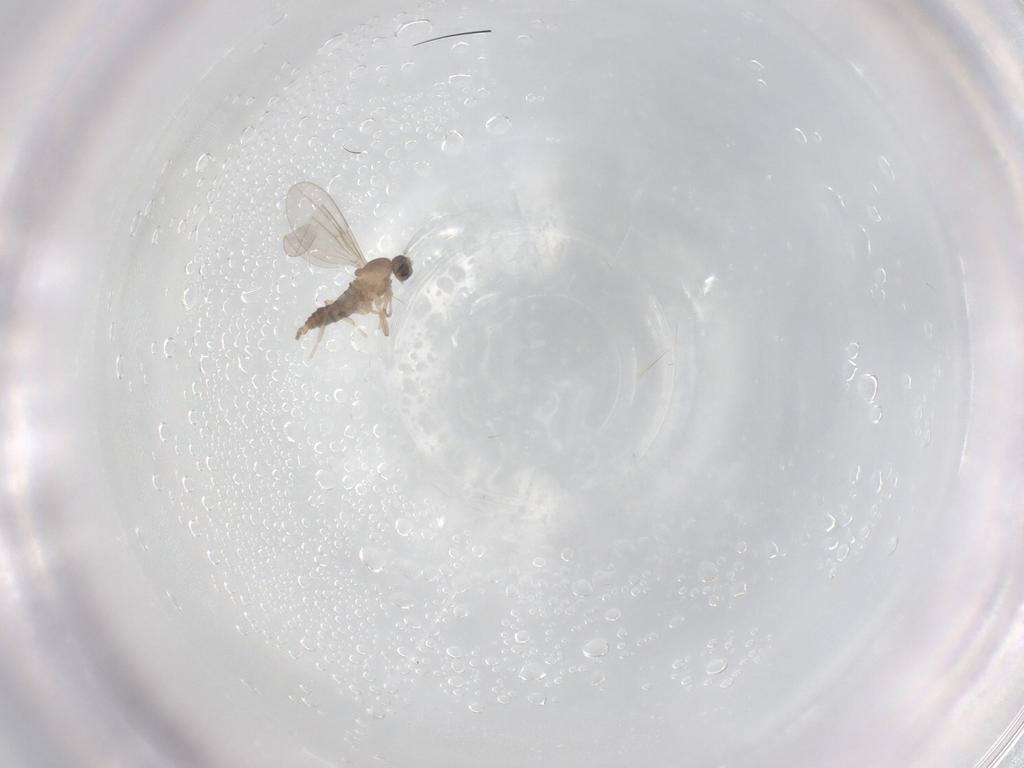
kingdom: Animalia
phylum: Arthropoda
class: Insecta
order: Diptera
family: Cecidomyiidae
